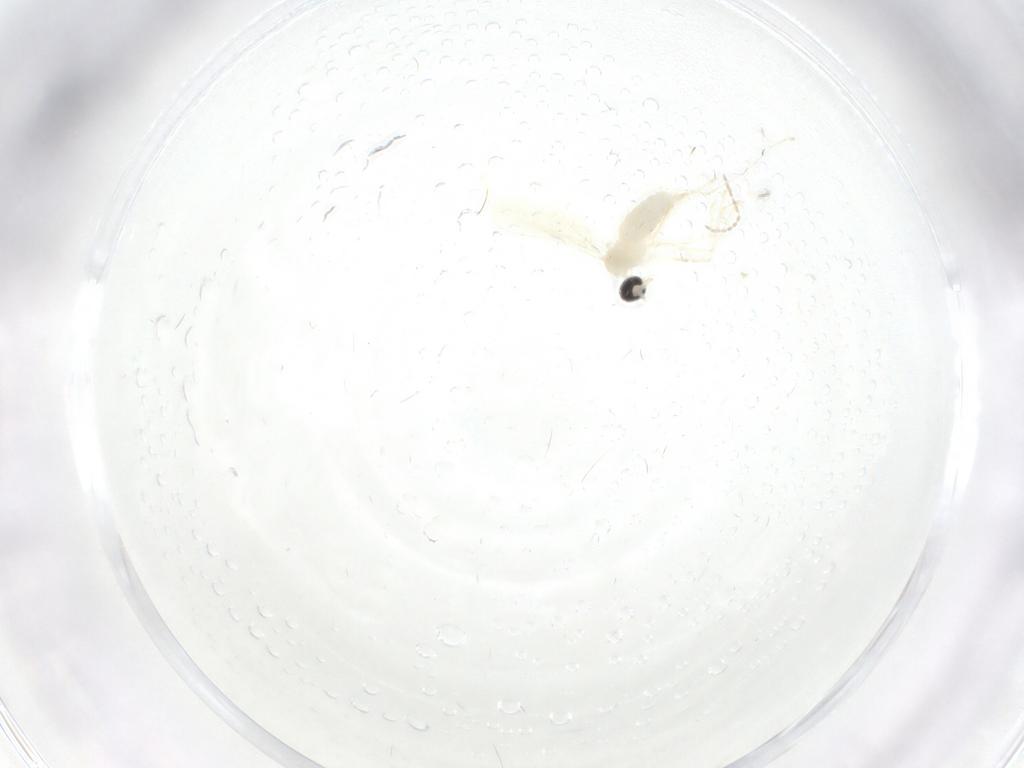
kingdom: Animalia
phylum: Arthropoda
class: Insecta
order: Diptera
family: Cecidomyiidae
